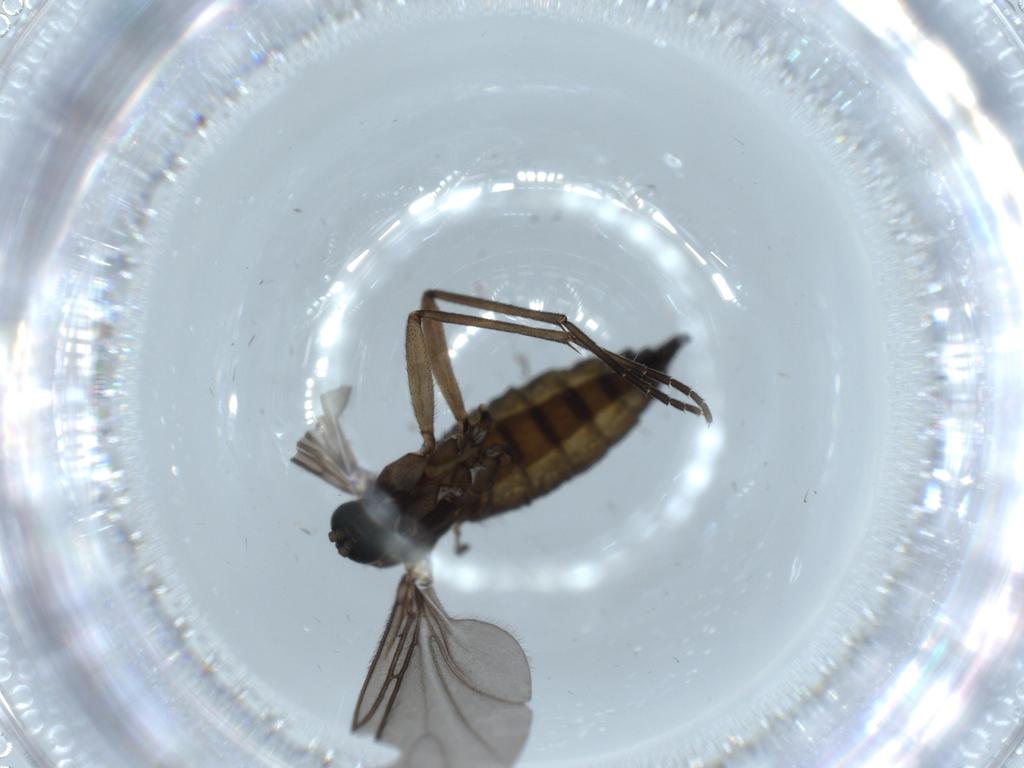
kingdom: Animalia
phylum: Arthropoda
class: Insecta
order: Diptera
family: Sciaridae
